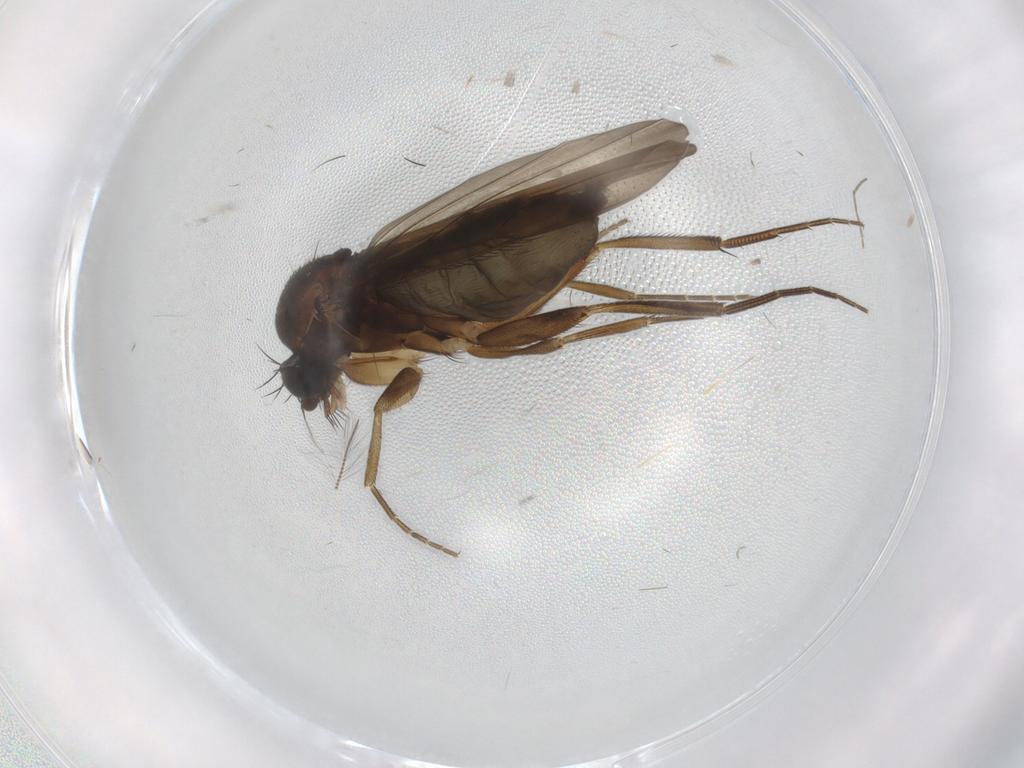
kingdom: Animalia
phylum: Arthropoda
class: Insecta
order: Diptera
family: Phoridae
